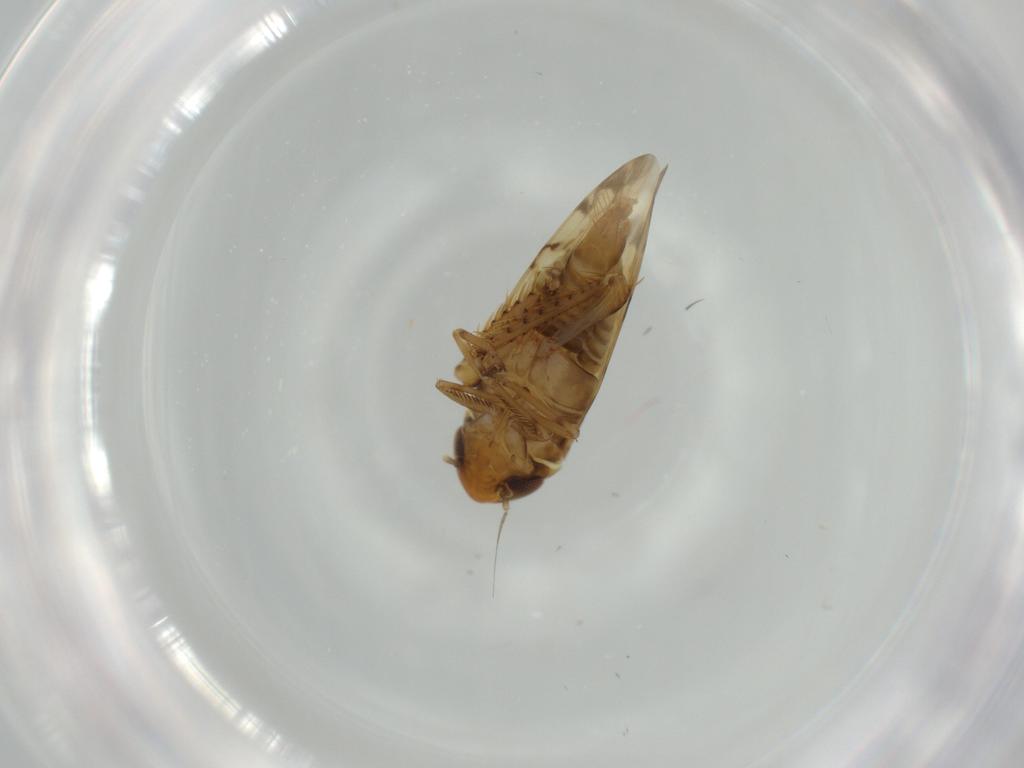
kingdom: Animalia
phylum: Arthropoda
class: Insecta
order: Hemiptera
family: Cicadellidae
